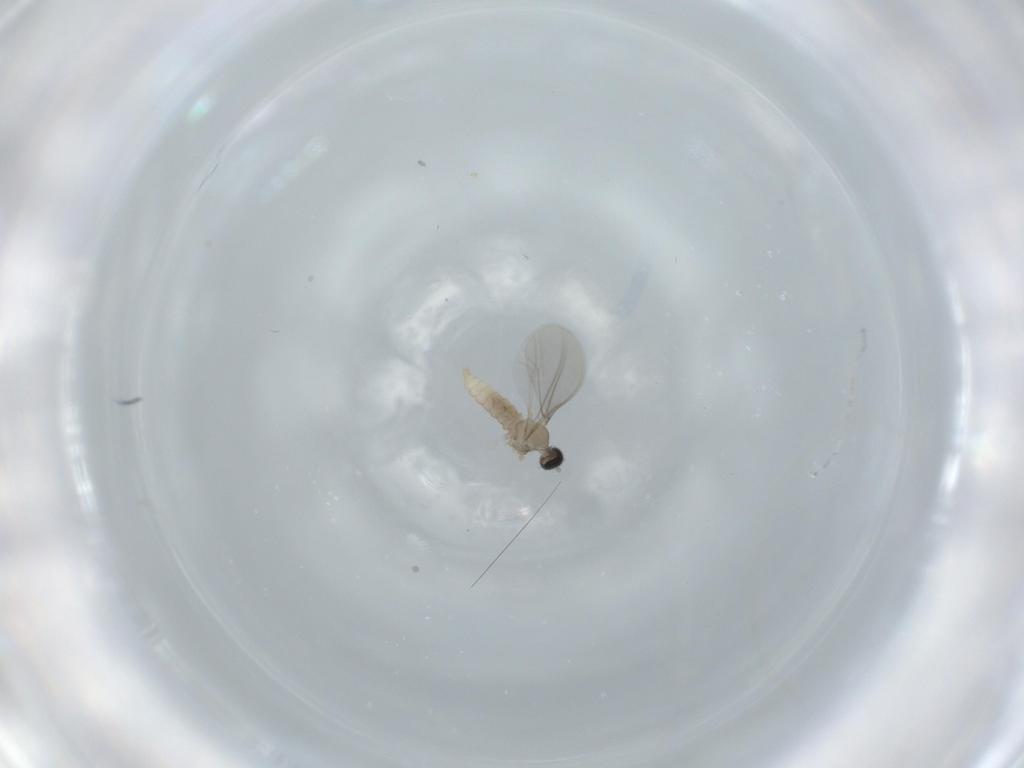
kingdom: Animalia
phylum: Arthropoda
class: Insecta
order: Diptera
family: Cecidomyiidae
